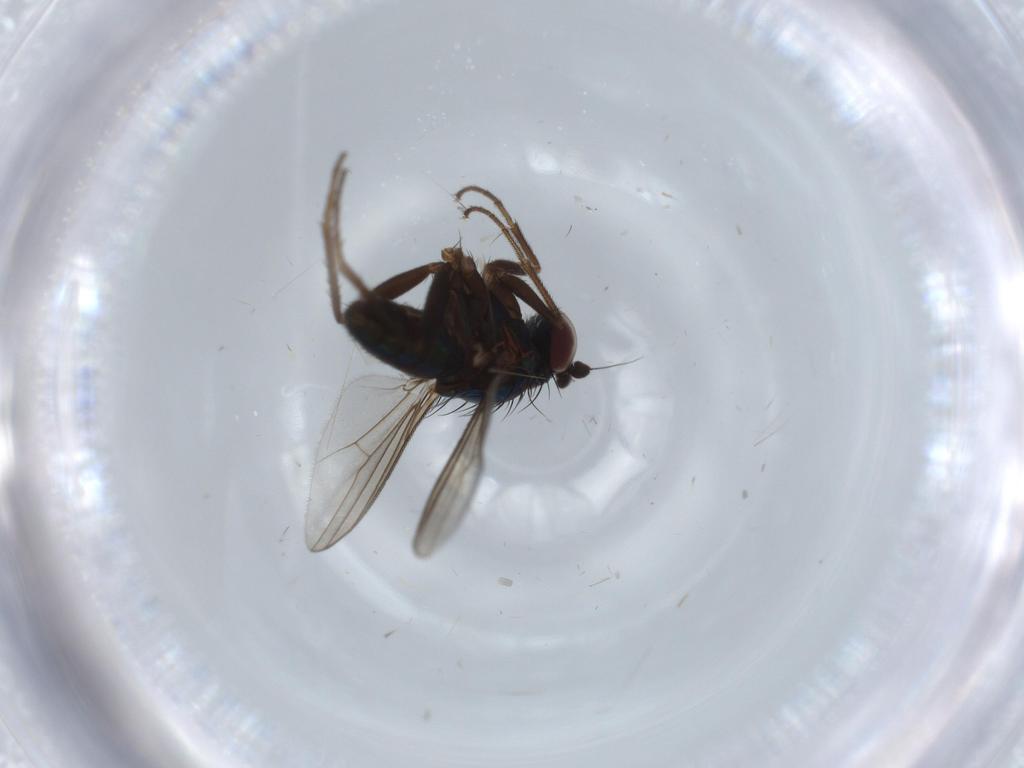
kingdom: Animalia
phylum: Arthropoda
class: Insecta
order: Diptera
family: Dolichopodidae
